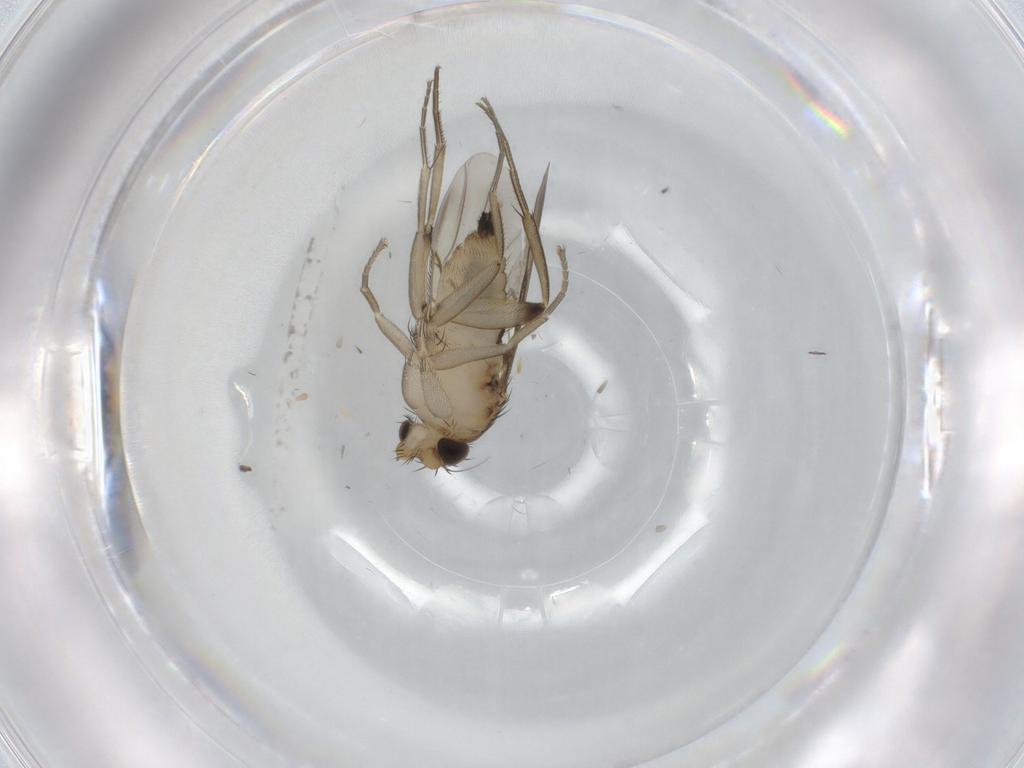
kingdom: Animalia
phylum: Arthropoda
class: Insecta
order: Diptera
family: Phoridae
